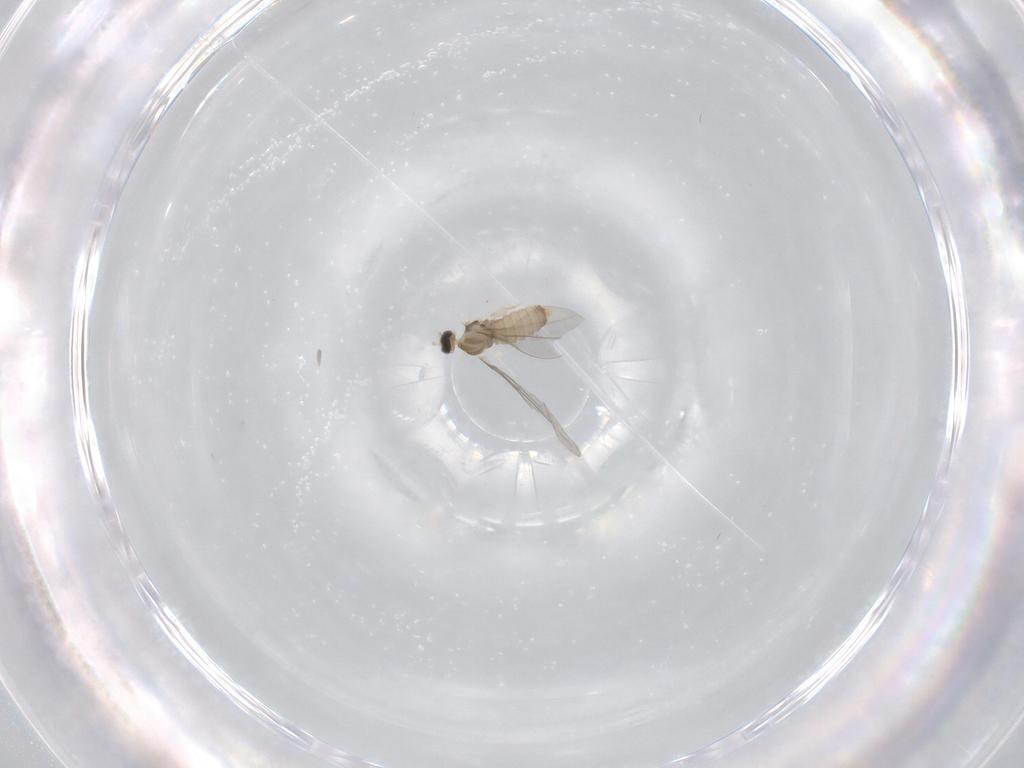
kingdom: Animalia
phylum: Arthropoda
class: Insecta
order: Diptera
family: Cecidomyiidae
